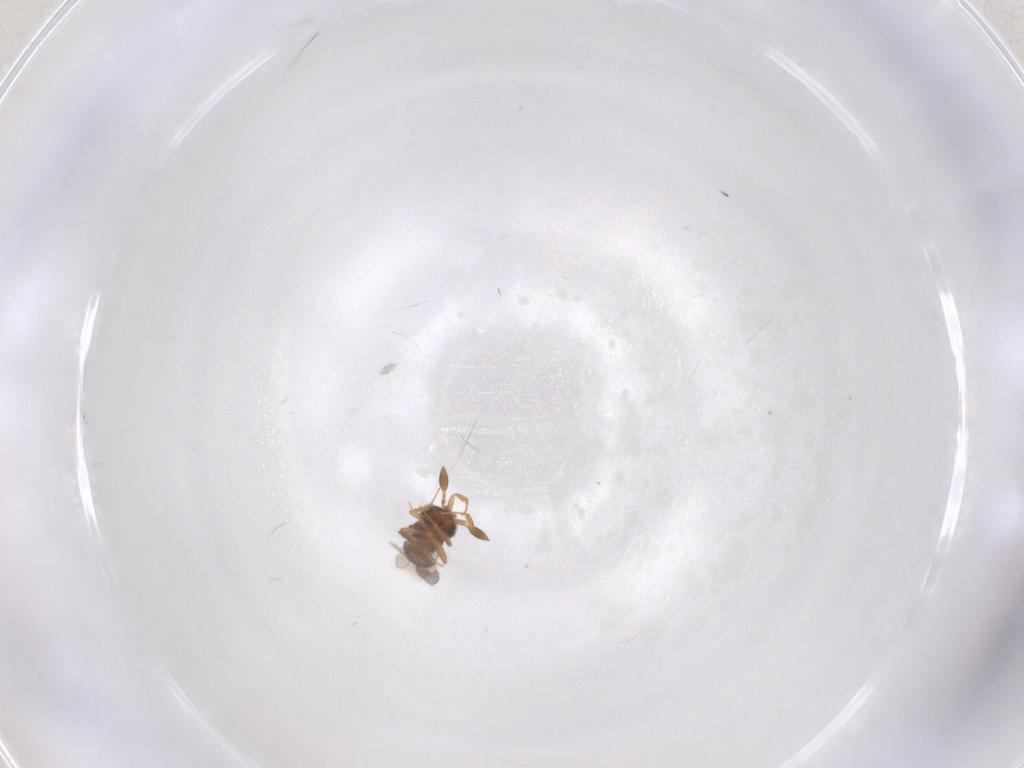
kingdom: Animalia
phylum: Arthropoda
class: Insecta
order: Hymenoptera
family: Scelionidae
